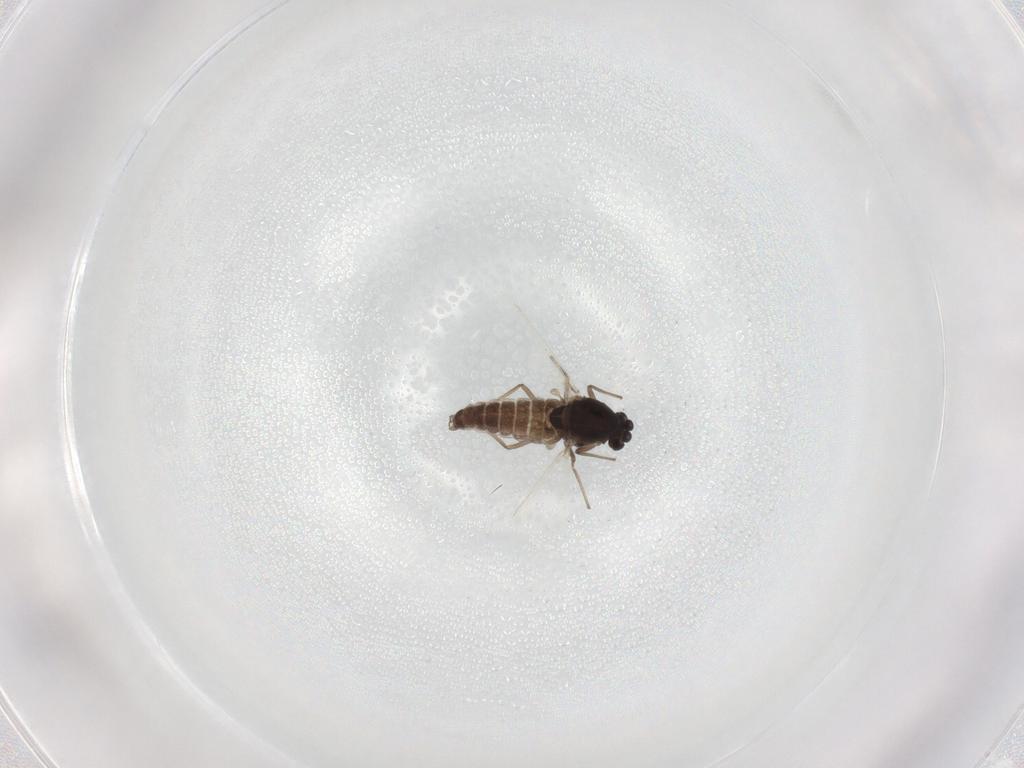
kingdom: Animalia
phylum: Arthropoda
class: Insecta
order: Diptera
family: Chironomidae
